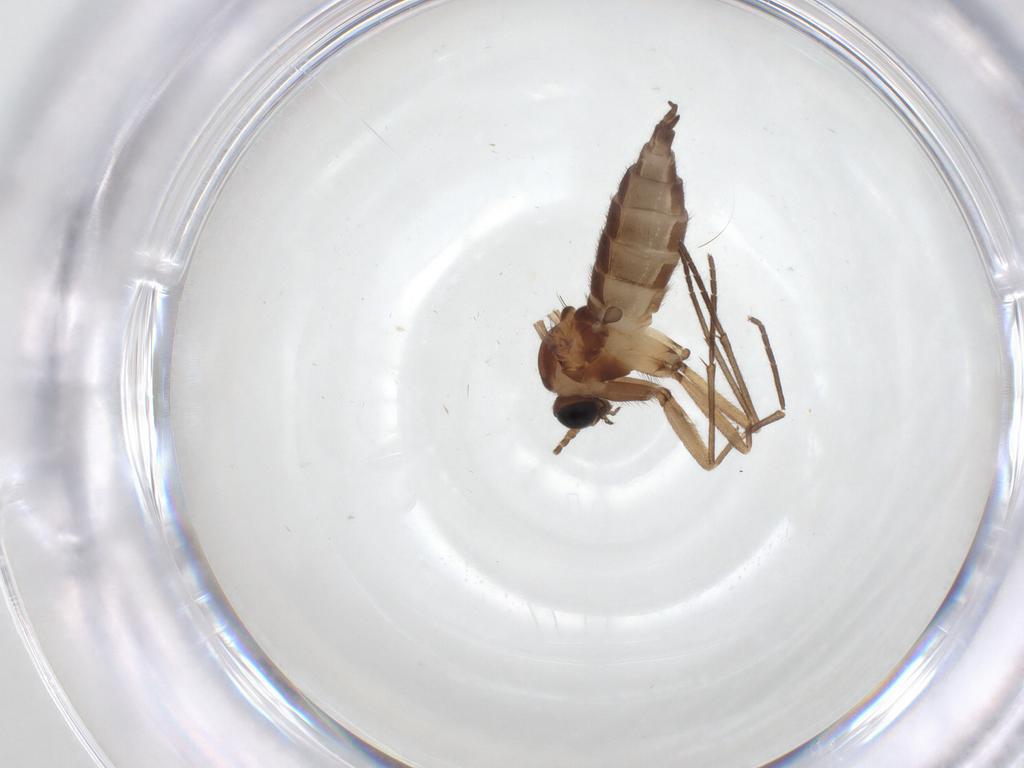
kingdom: Animalia
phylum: Arthropoda
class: Insecta
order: Diptera
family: Sciaridae
